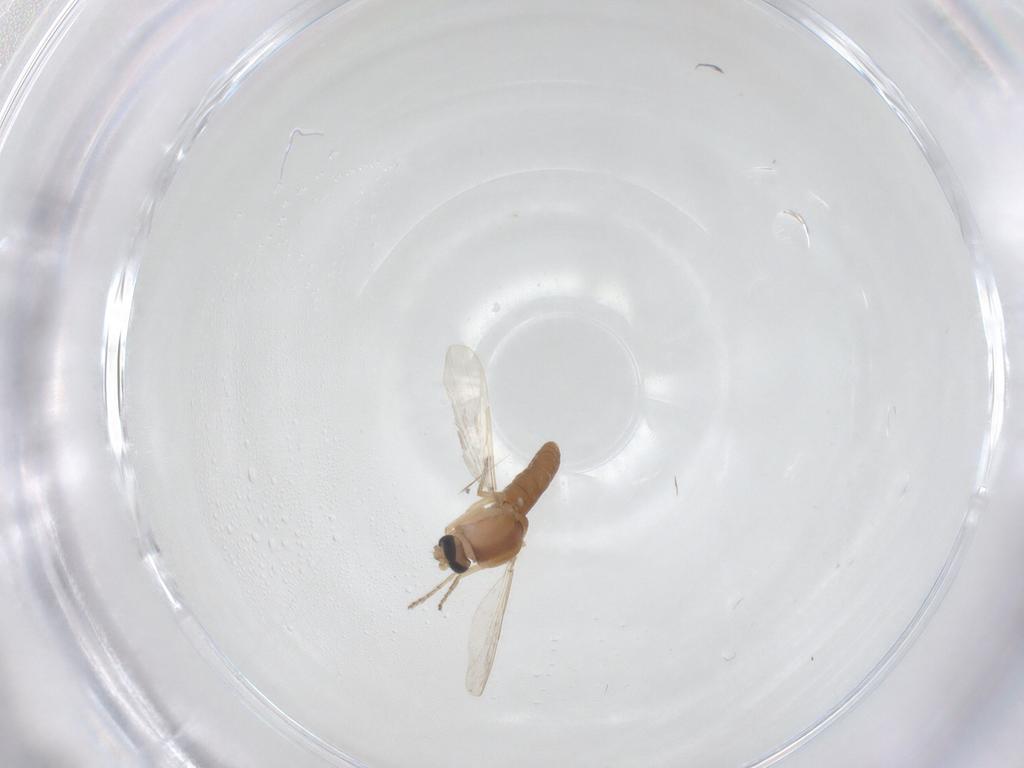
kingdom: Animalia
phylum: Arthropoda
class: Insecta
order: Diptera
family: Ceratopogonidae
